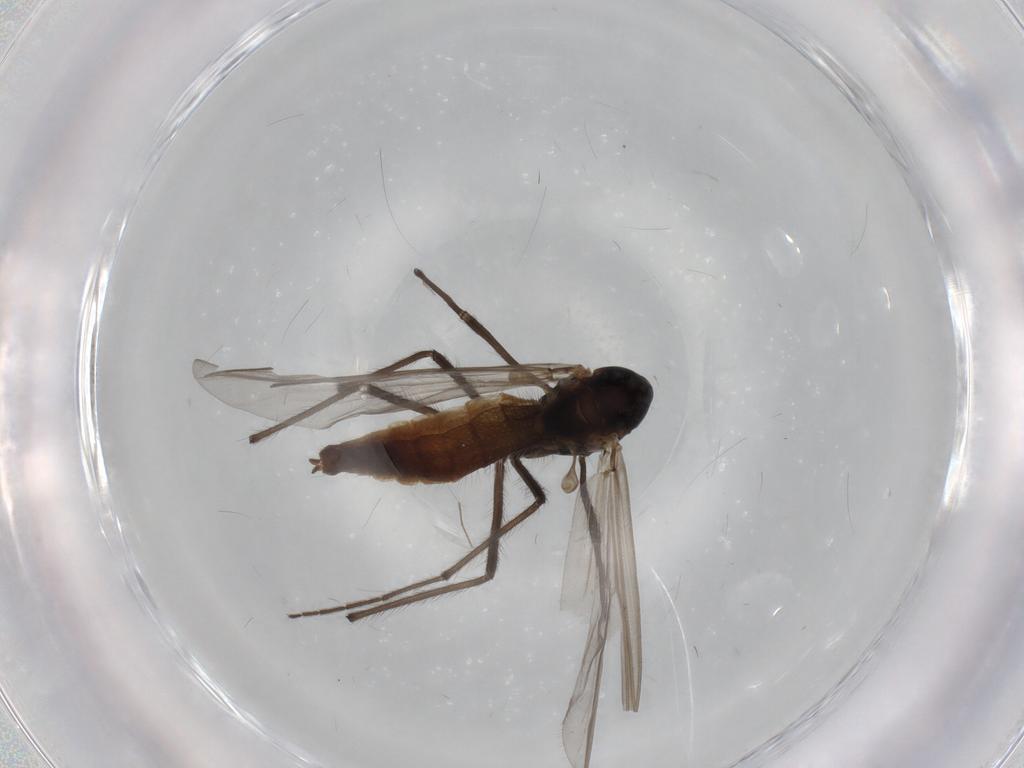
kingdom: Animalia
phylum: Arthropoda
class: Insecta
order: Diptera
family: Chironomidae
